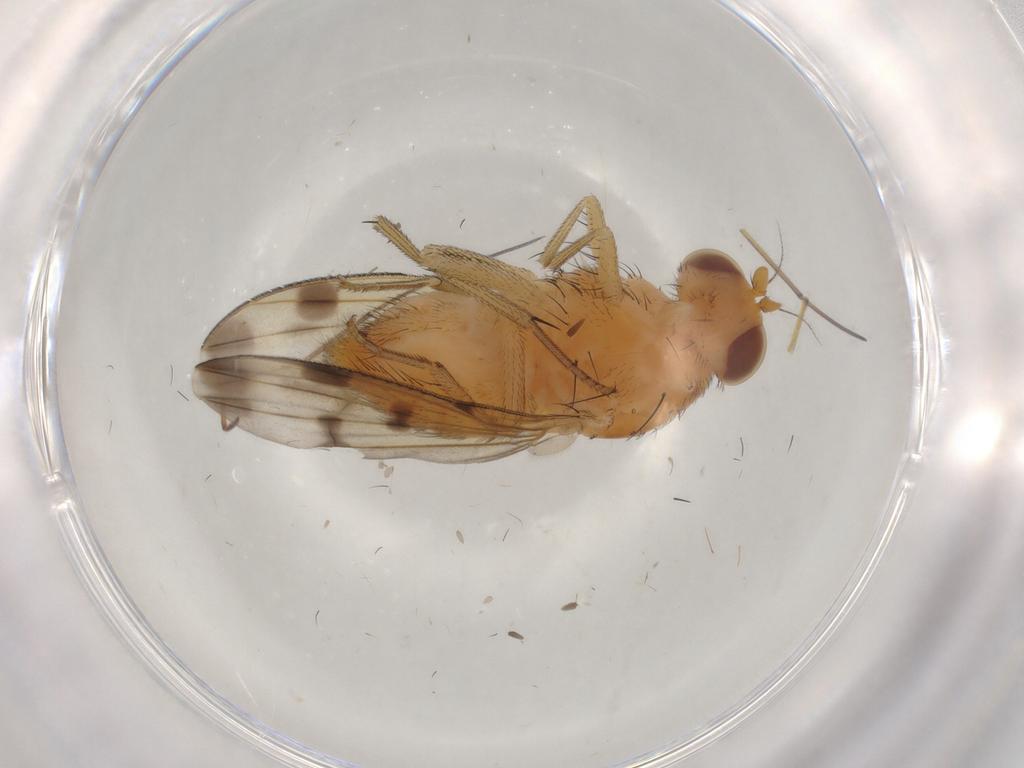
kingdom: Animalia
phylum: Arthropoda
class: Insecta
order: Diptera
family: Lauxaniidae
